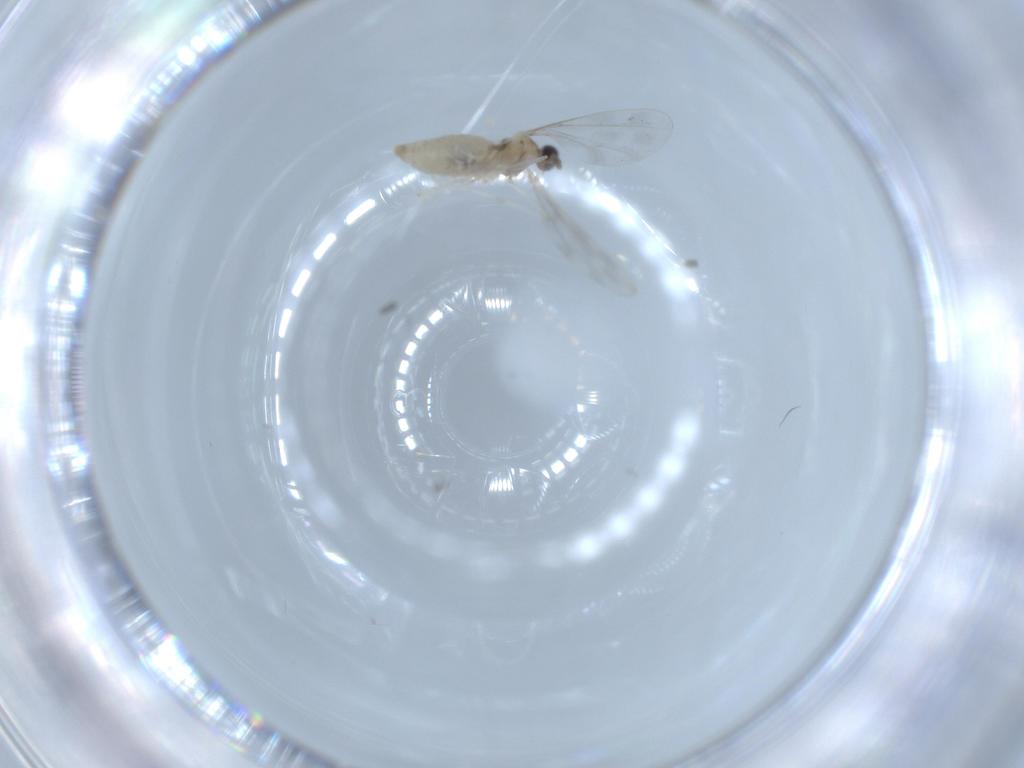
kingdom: Animalia
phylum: Arthropoda
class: Insecta
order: Diptera
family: Cecidomyiidae
